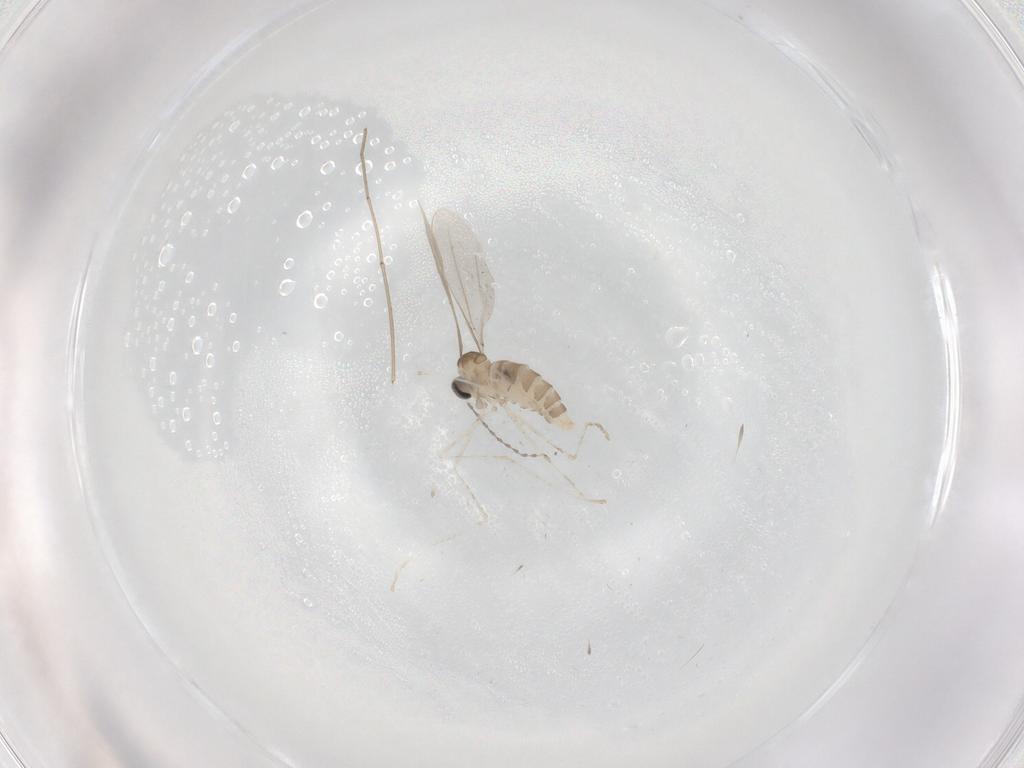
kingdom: Animalia
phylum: Arthropoda
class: Insecta
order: Diptera
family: Cecidomyiidae
